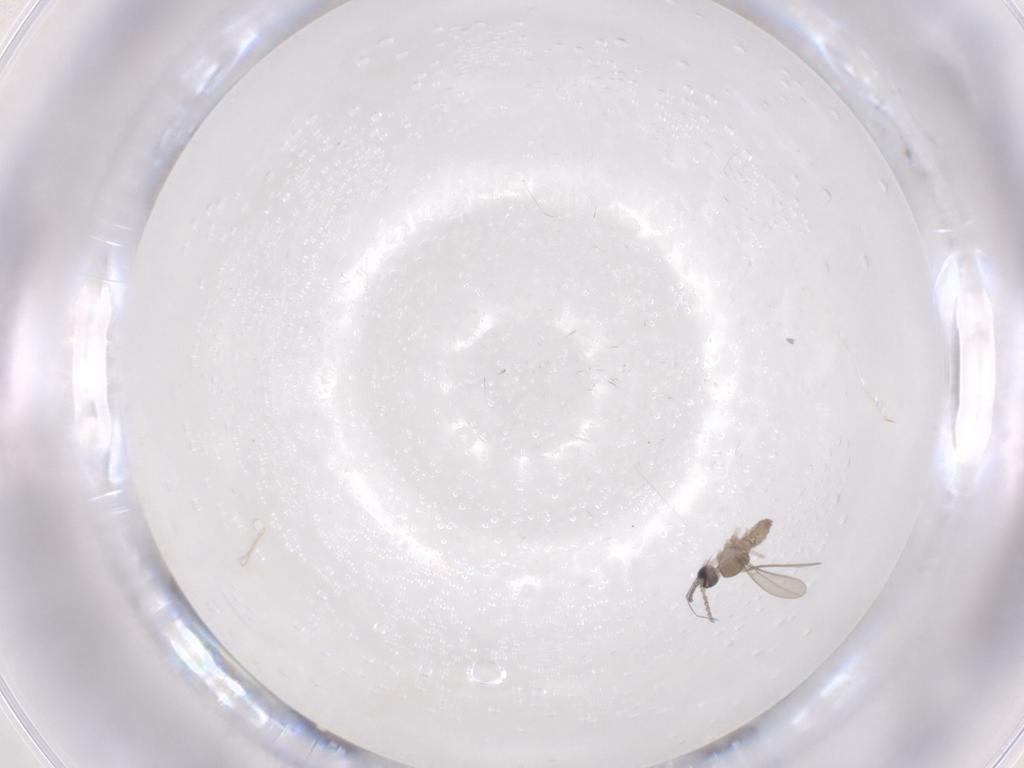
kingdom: Animalia
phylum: Arthropoda
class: Insecta
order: Diptera
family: Cecidomyiidae
